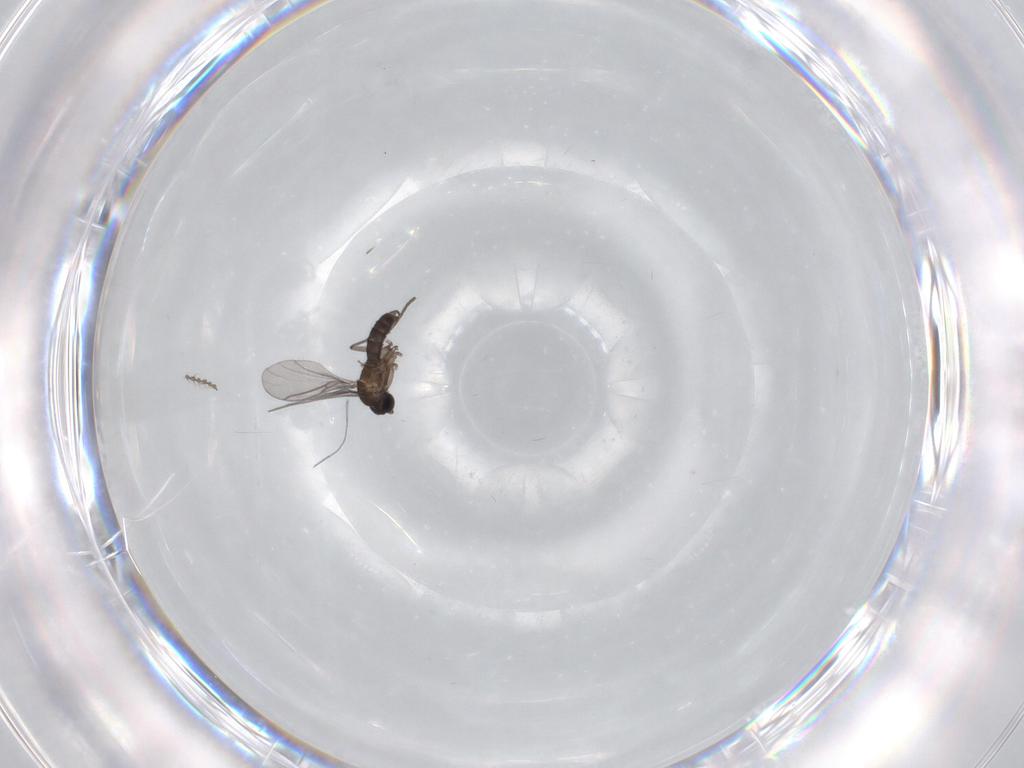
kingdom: Animalia
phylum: Arthropoda
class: Insecta
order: Diptera
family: Cecidomyiidae
